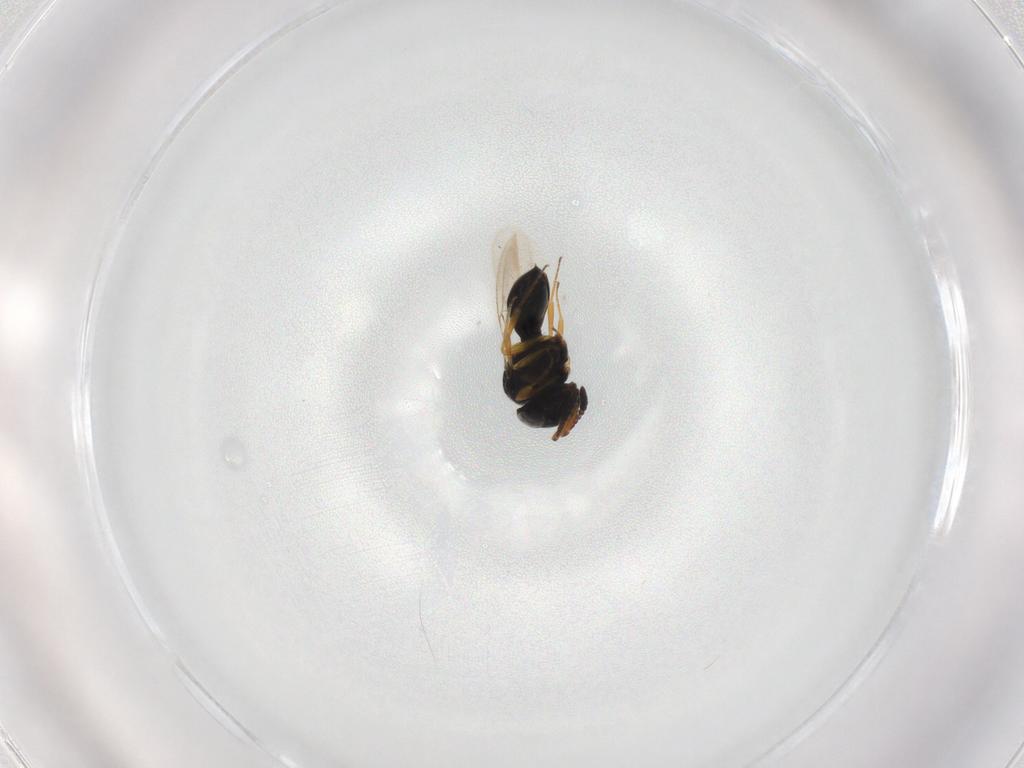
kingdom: Animalia
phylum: Arthropoda
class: Insecta
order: Hymenoptera
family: Scelionidae
